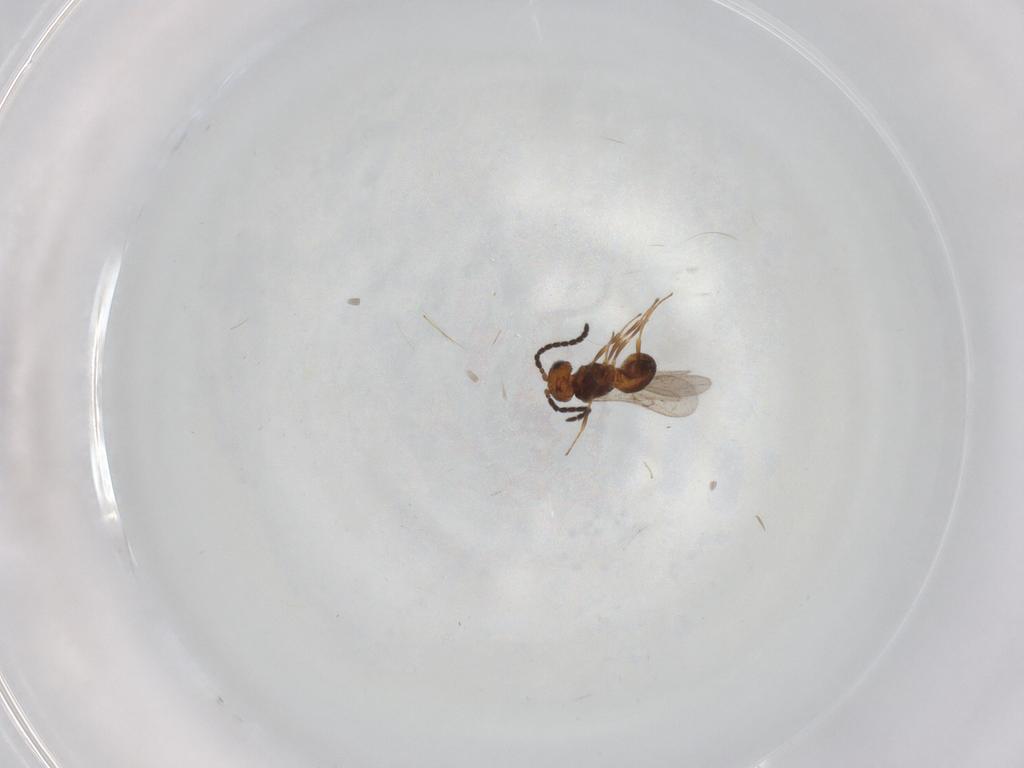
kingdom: Animalia
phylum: Arthropoda
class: Insecta
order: Hymenoptera
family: Scelionidae
